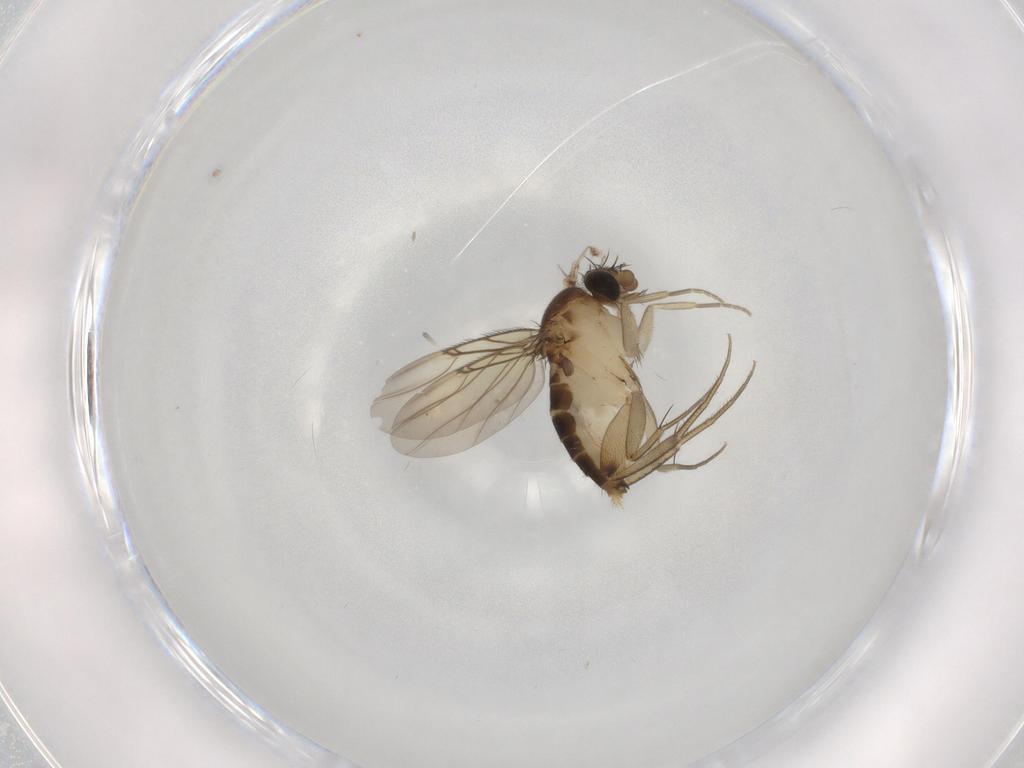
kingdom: Animalia
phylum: Arthropoda
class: Insecta
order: Diptera
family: Phoridae
